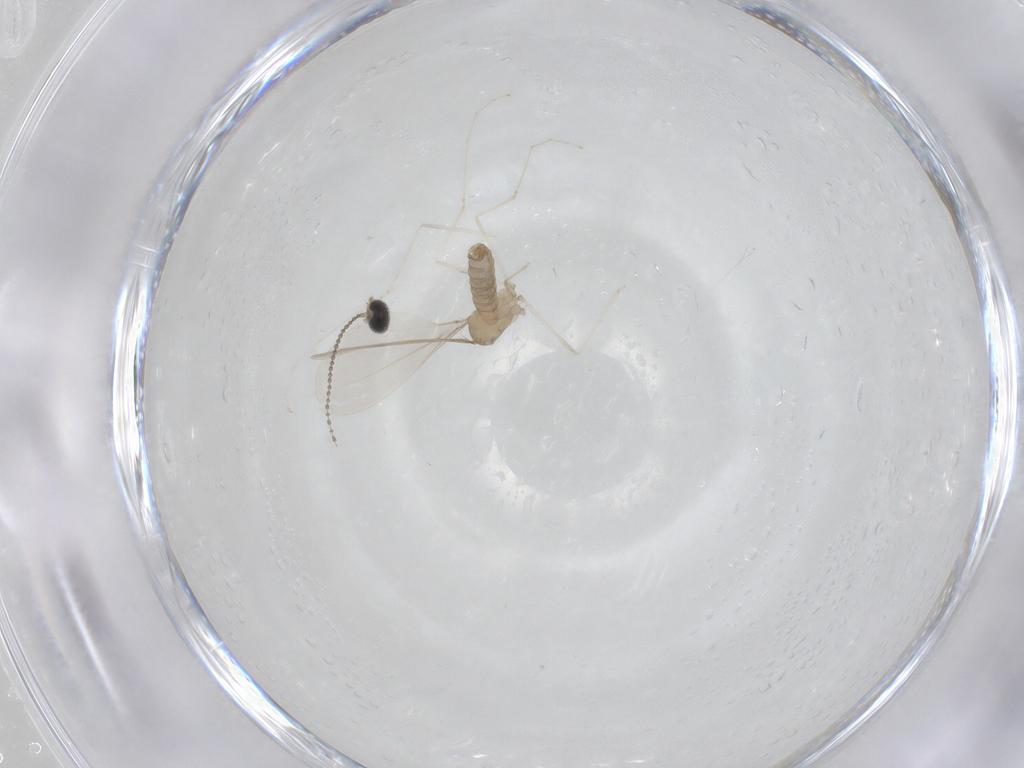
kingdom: Animalia
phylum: Arthropoda
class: Insecta
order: Diptera
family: Cecidomyiidae
